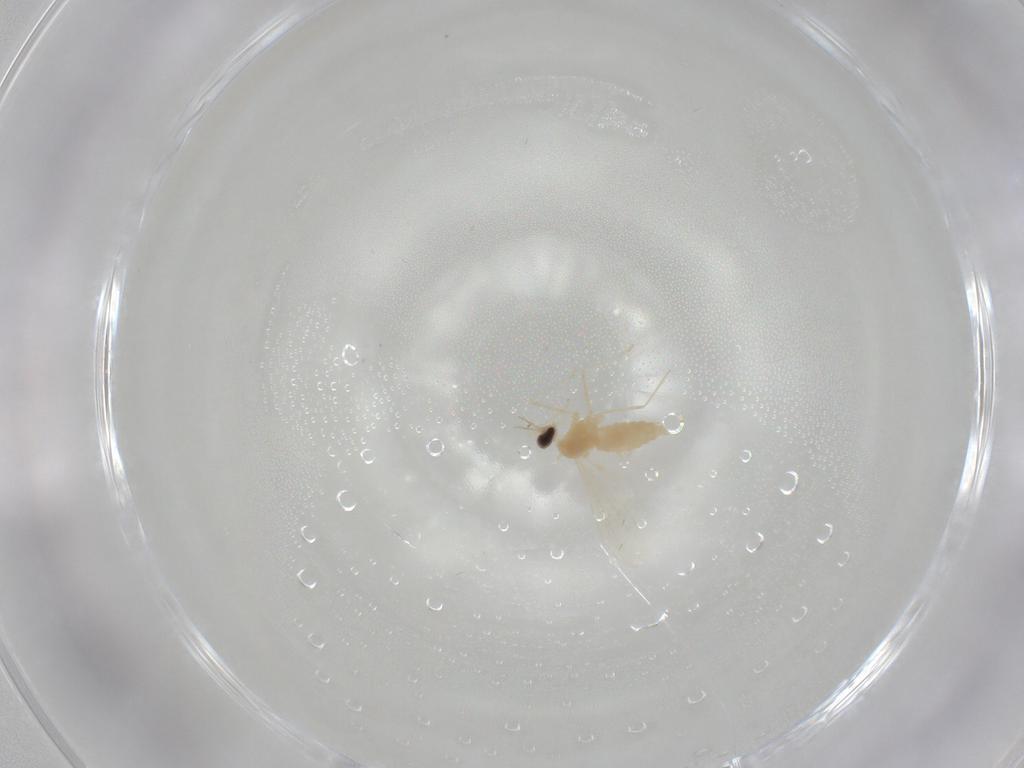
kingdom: Animalia
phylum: Arthropoda
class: Insecta
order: Diptera
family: Cecidomyiidae
